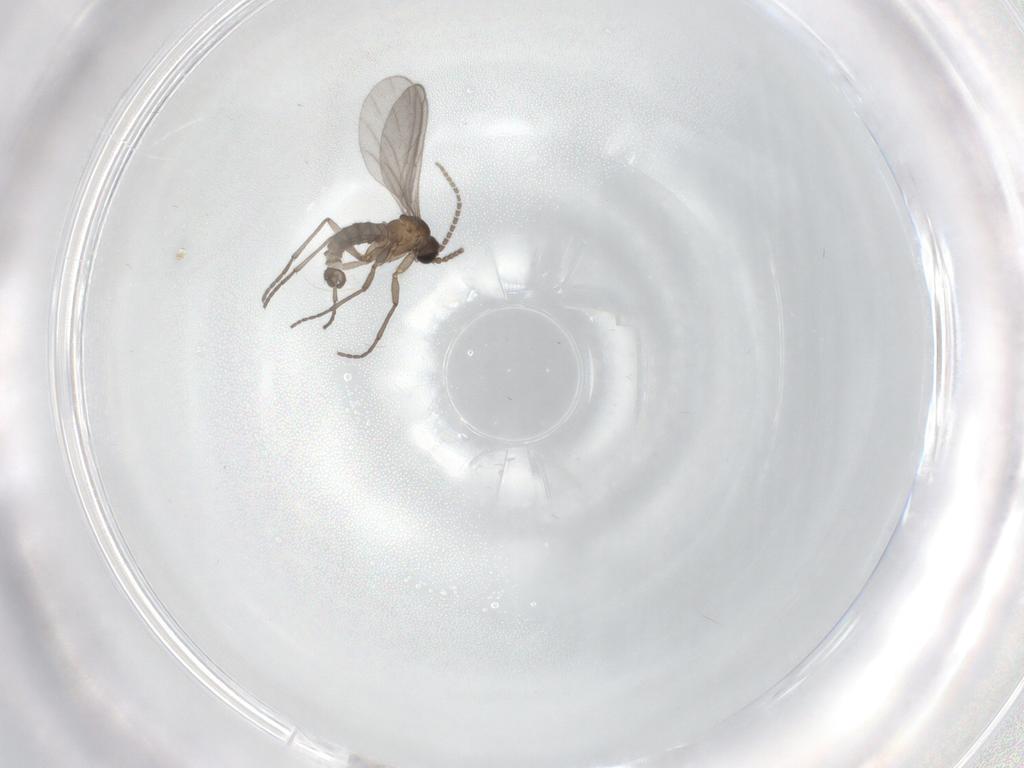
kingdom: Animalia
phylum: Arthropoda
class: Insecta
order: Diptera
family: Sciaridae
